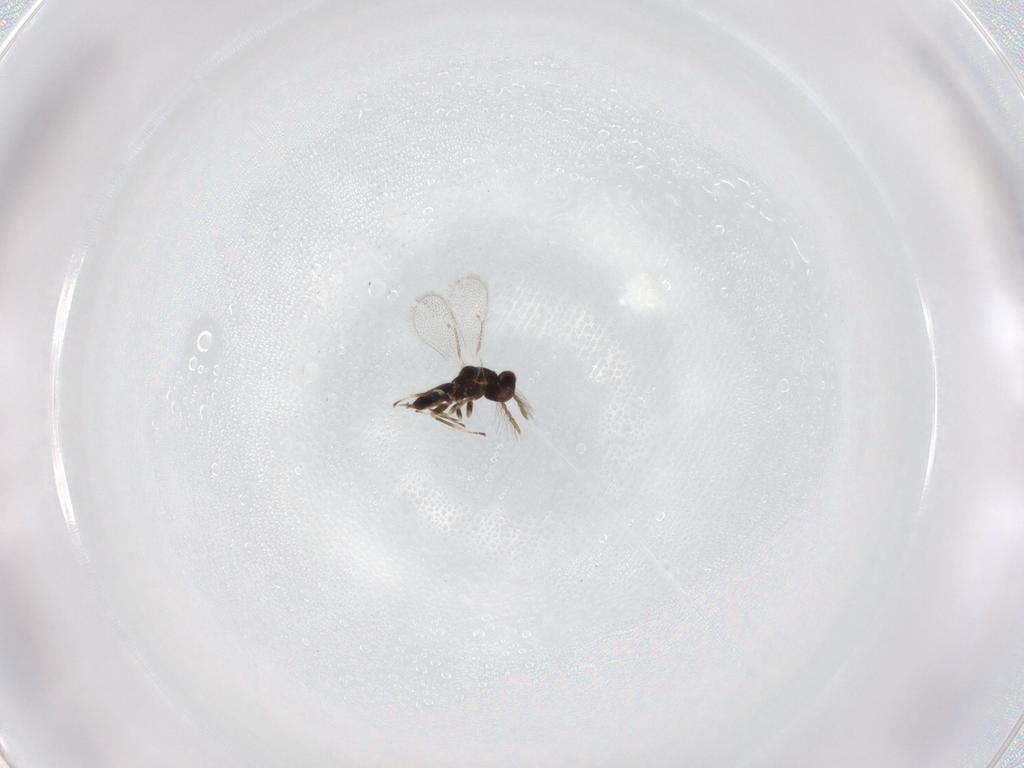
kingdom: Animalia
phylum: Arthropoda
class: Insecta
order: Hymenoptera
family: Eulophidae
